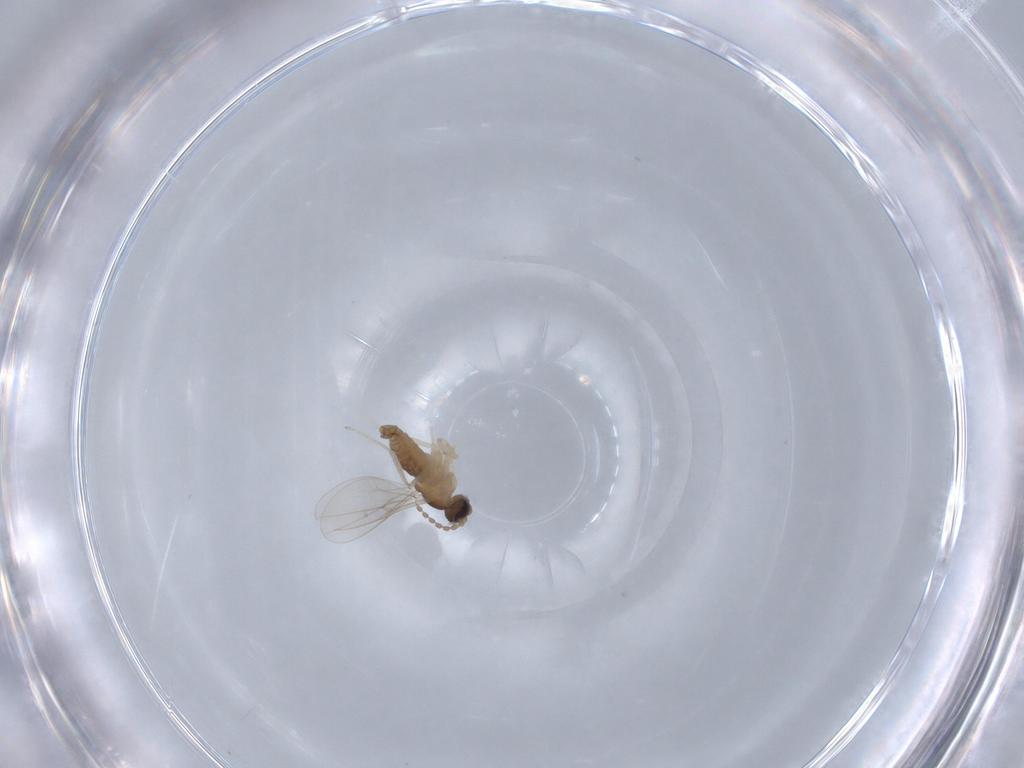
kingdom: Animalia
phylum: Arthropoda
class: Insecta
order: Diptera
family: Cecidomyiidae
